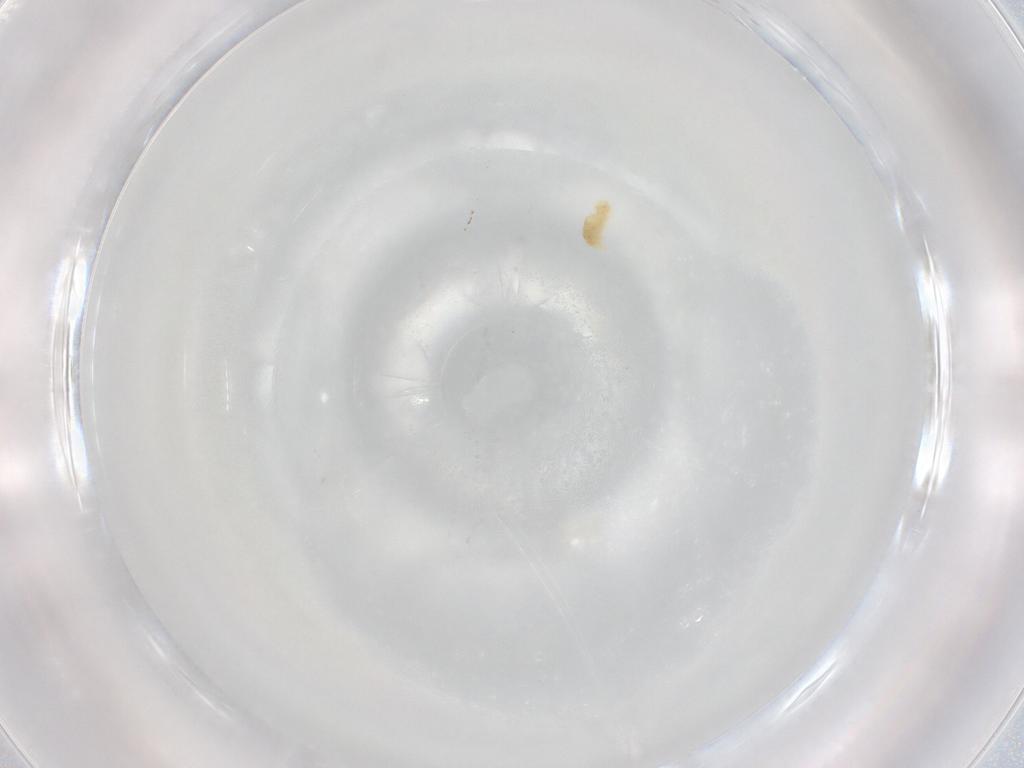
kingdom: Animalia
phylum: Arthropoda
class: Arachnida
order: Trombidiformes
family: Eupodidae
